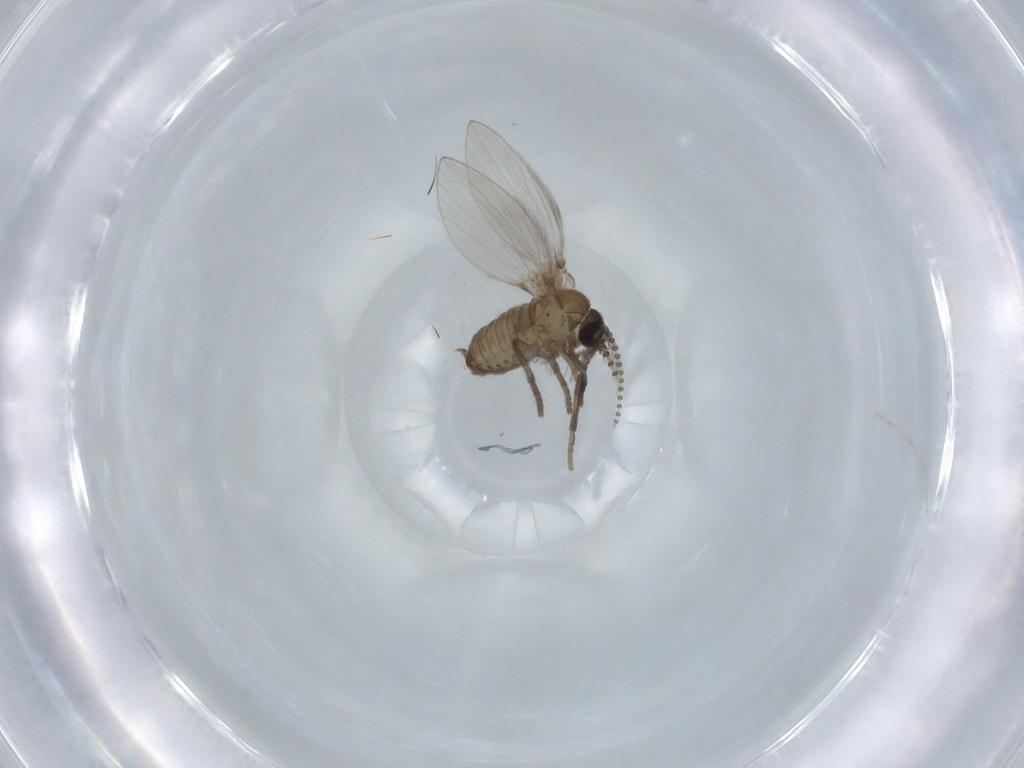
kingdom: Animalia
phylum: Arthropoda
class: Insecta
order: Diptera
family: Psychodidae
